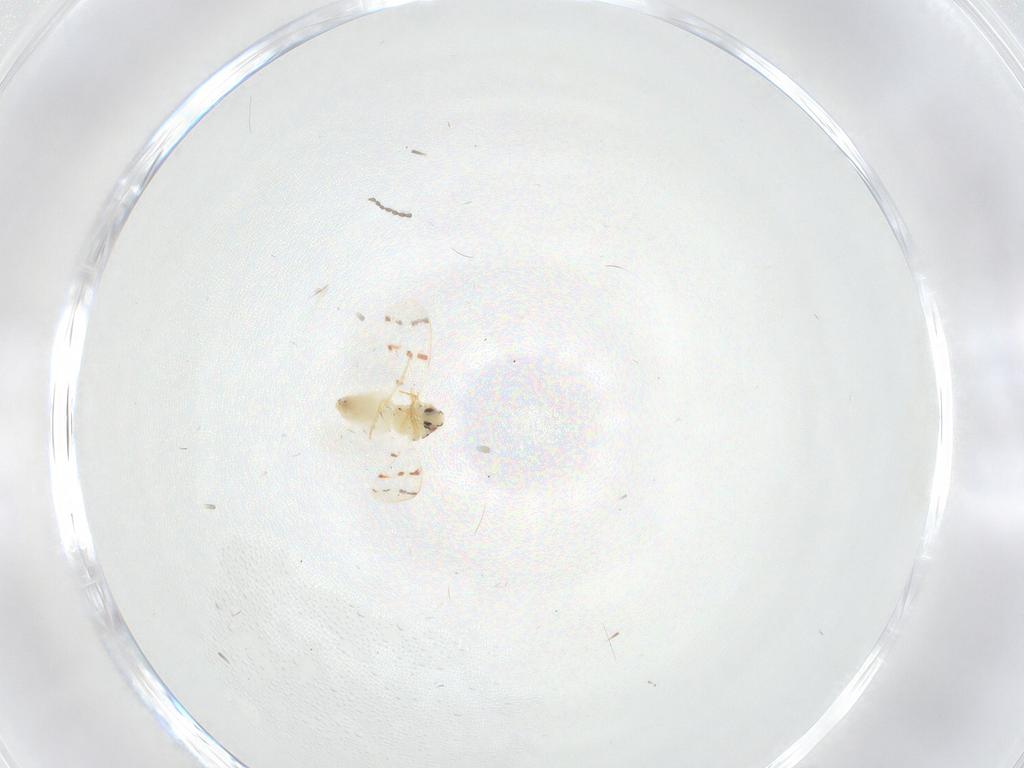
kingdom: Animalia
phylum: Arthropoda
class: Insecta
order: Hemiptera
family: Aleyrodidae
